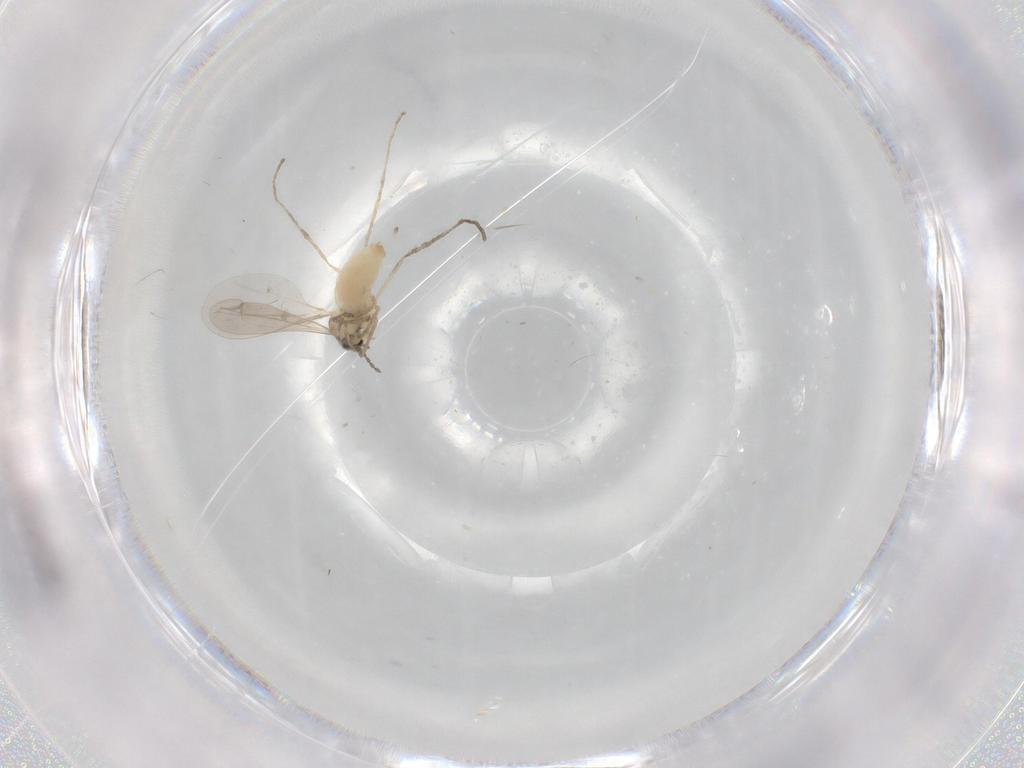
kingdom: Animalia
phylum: Arthropoda
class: Insecta
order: Diptera
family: Cecidomyiidae
